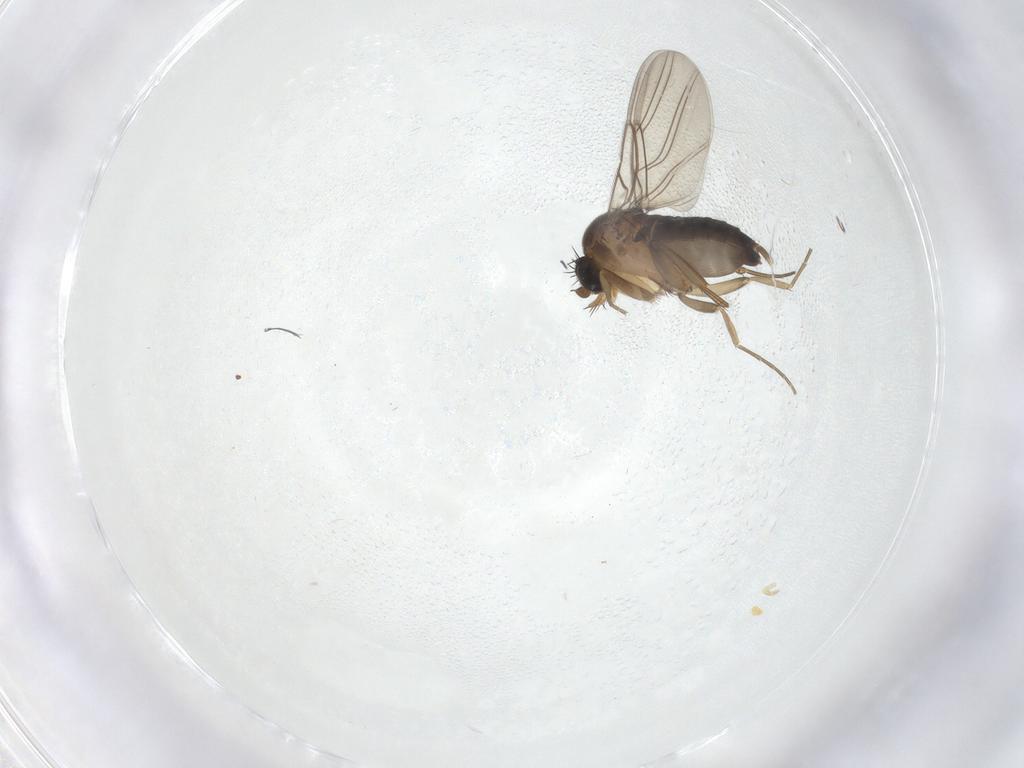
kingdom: Animalia
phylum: Arthropoda
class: Insecta
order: Diptera
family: Phoridae
